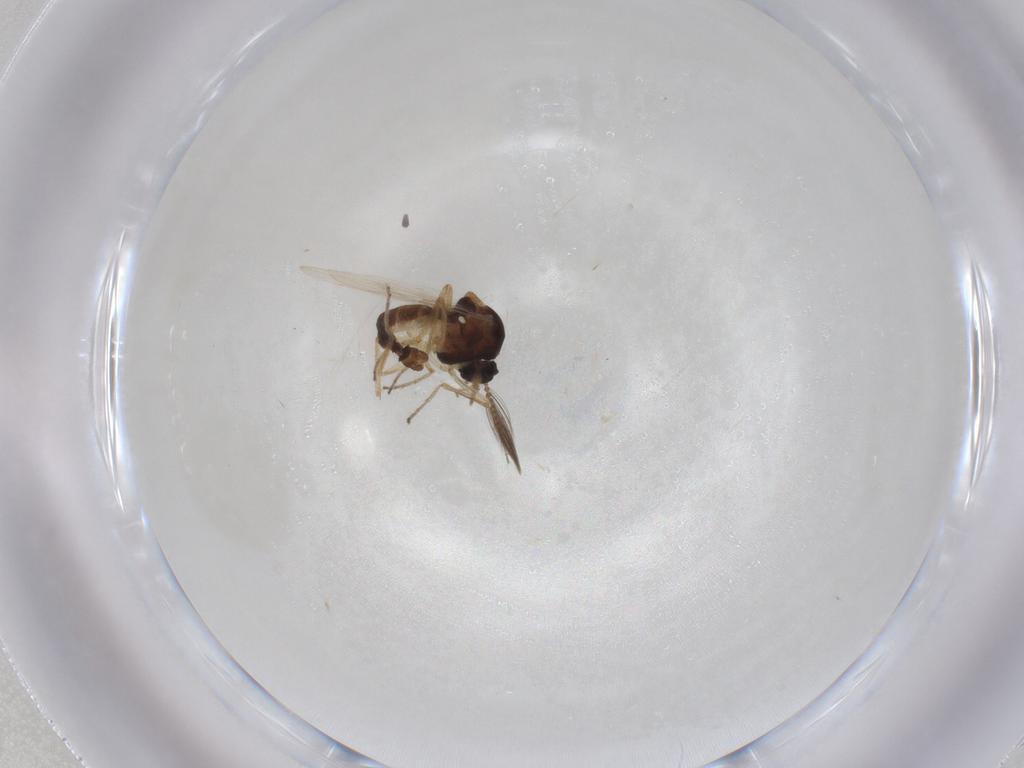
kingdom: Animalia
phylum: Arthropoda
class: Insecta
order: Diptera
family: Ceratopogonidae
